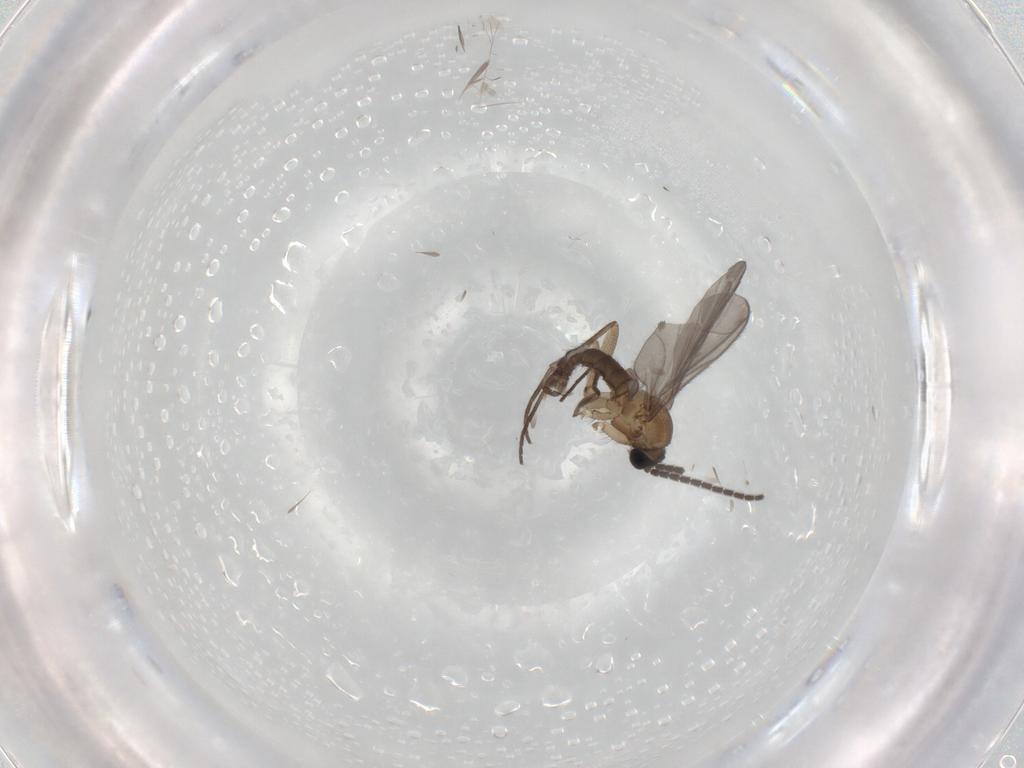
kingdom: Animalia
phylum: Arthropoda
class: Insecta
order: Diptera
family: Sciaridae
